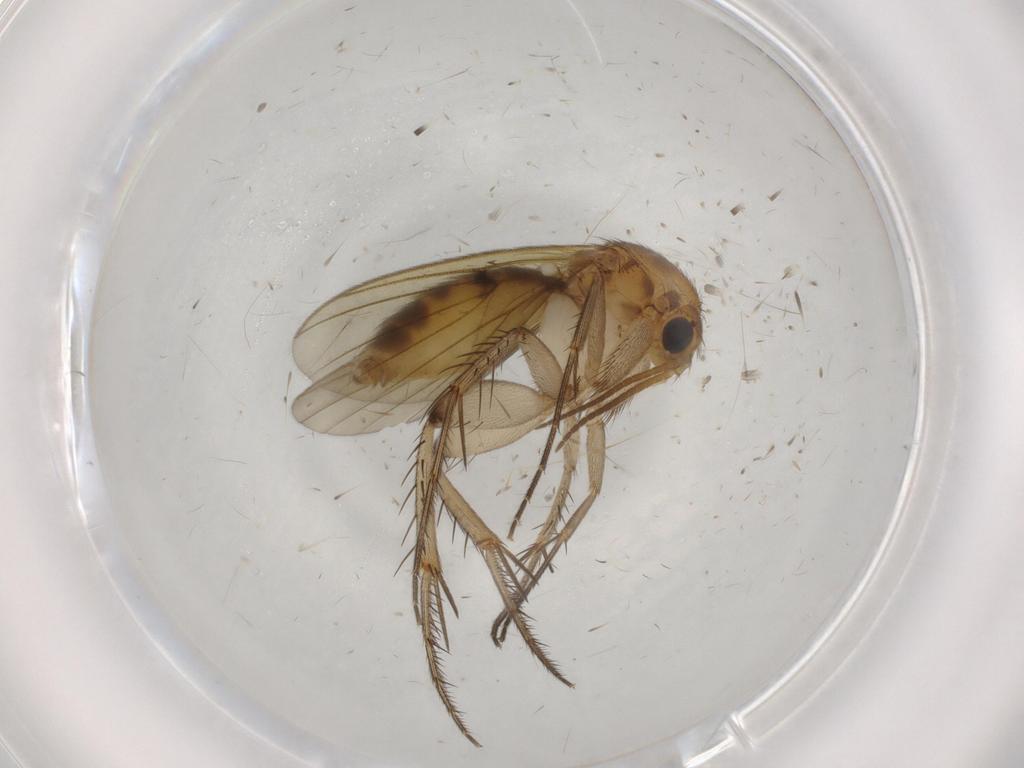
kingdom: Animalia
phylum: Arthropoda
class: Insecta
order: Diptera
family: Cecidomyiidae
